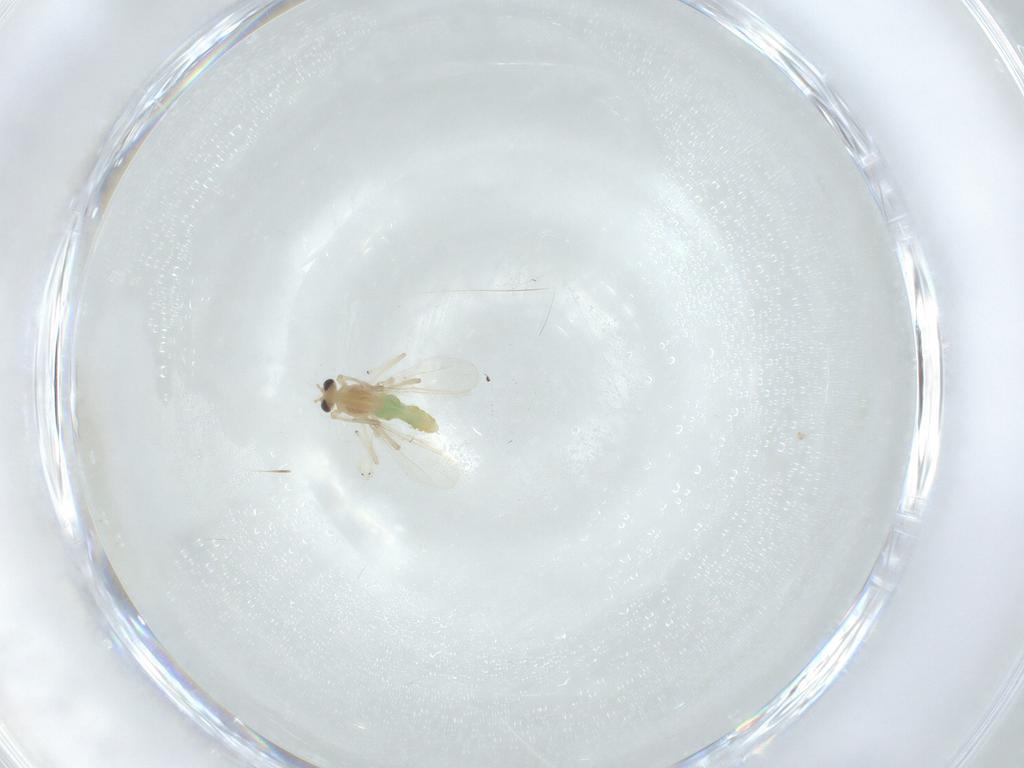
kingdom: Animalia
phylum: Arthropoda
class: Insecta
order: Diptera
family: Chironomidae
